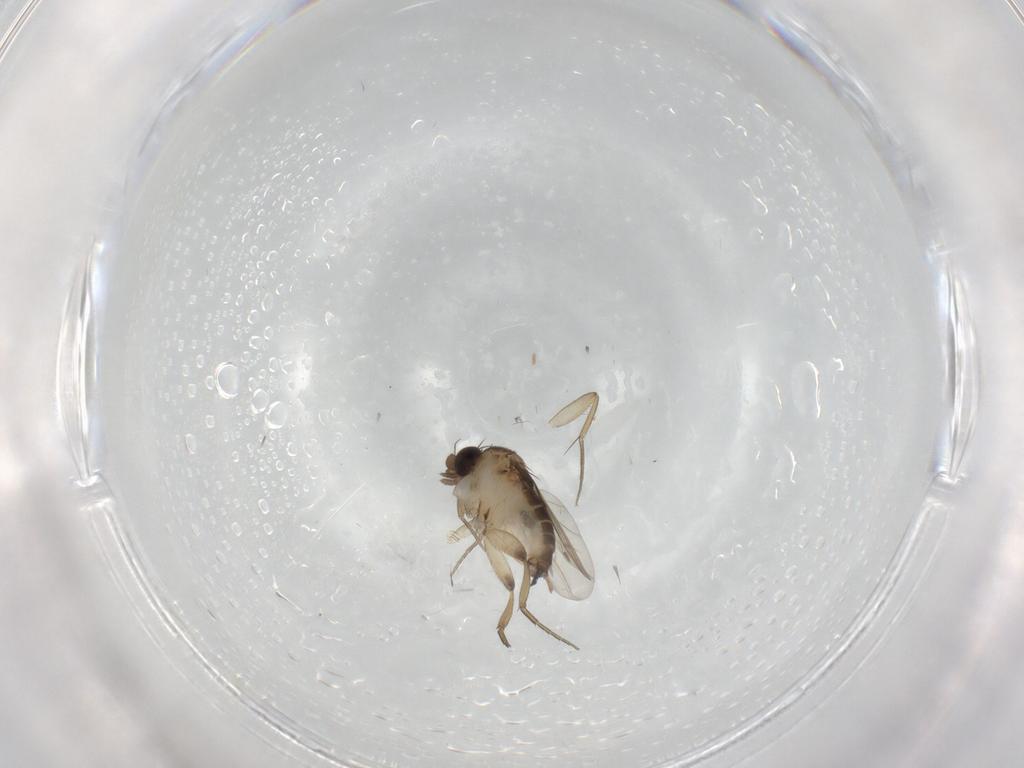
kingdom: Animalia
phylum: Arthropoda
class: Insecta
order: Diptera
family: Phoridae
